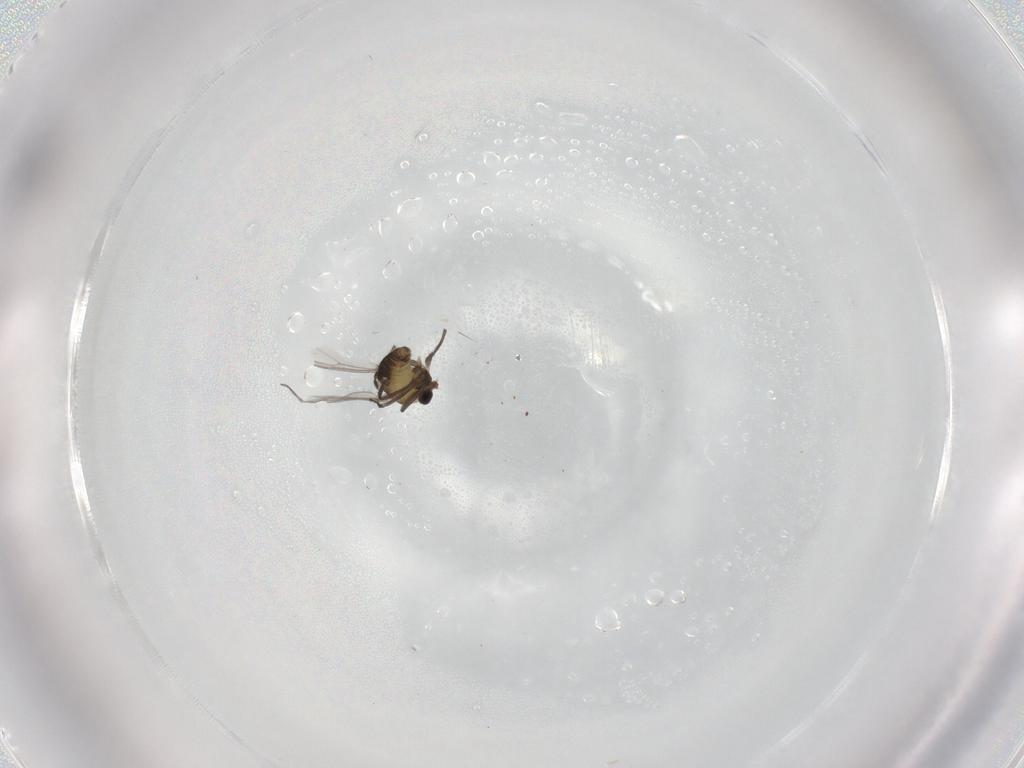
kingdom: Animalia
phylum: Arthropoda
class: Insecta
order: Diptera
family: Chironomidae
